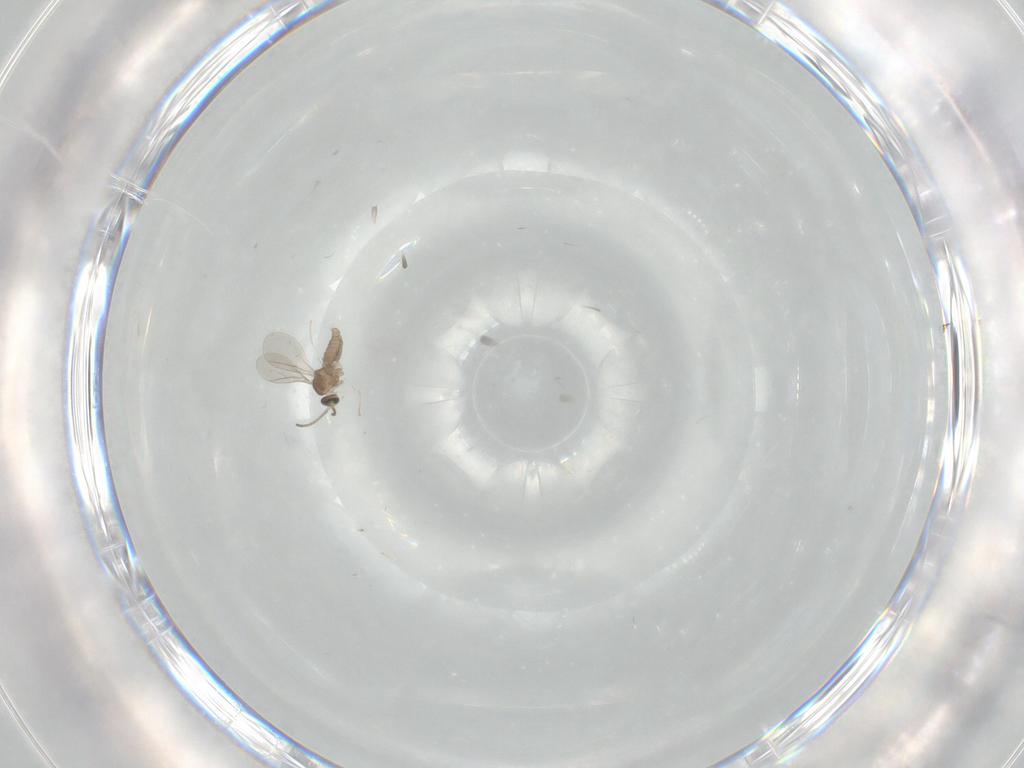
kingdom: Animalia
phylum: Arthropoda
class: Insecta
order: Diptera
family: Cecidomyiidae
